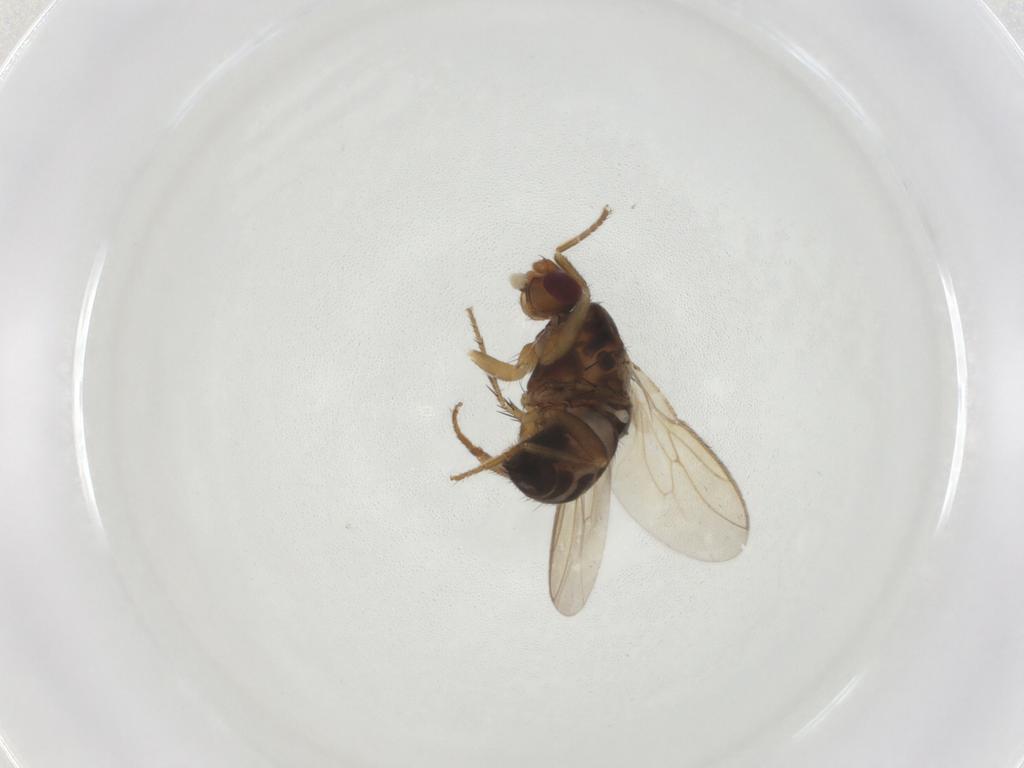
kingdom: Animalia
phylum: Arthropoda
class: Insecta
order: Diptera
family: Sphaeroceridae
